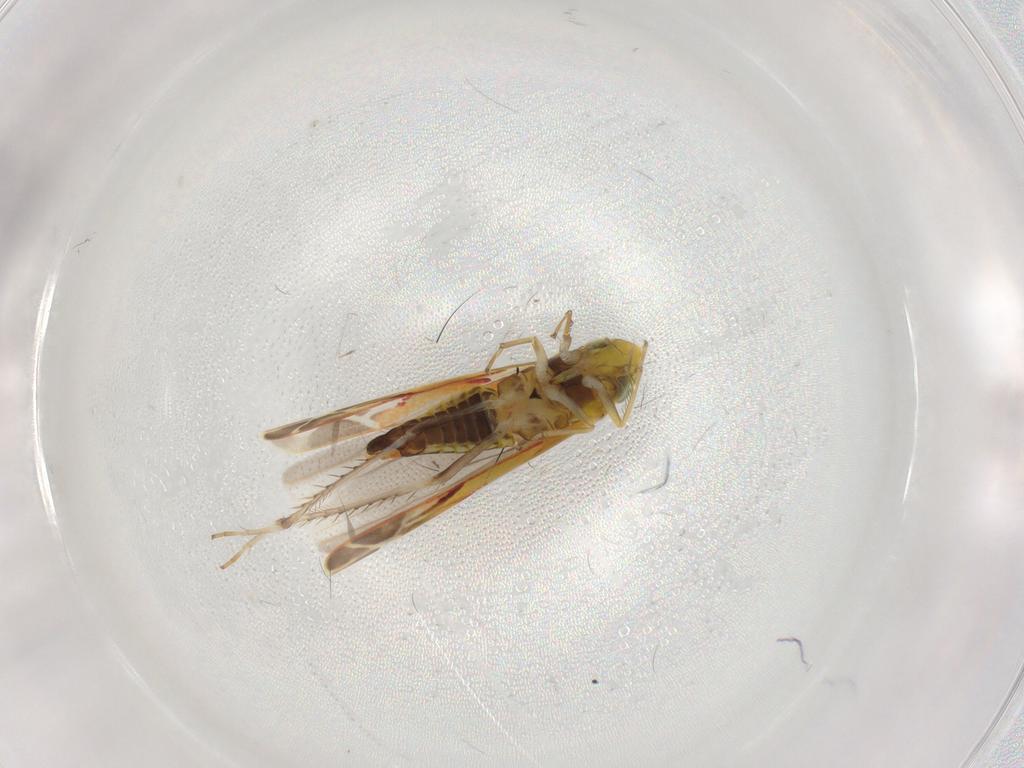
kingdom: Animalia
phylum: Arthropoda
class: Insecta
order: Hemiptera
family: Cicadellidae
